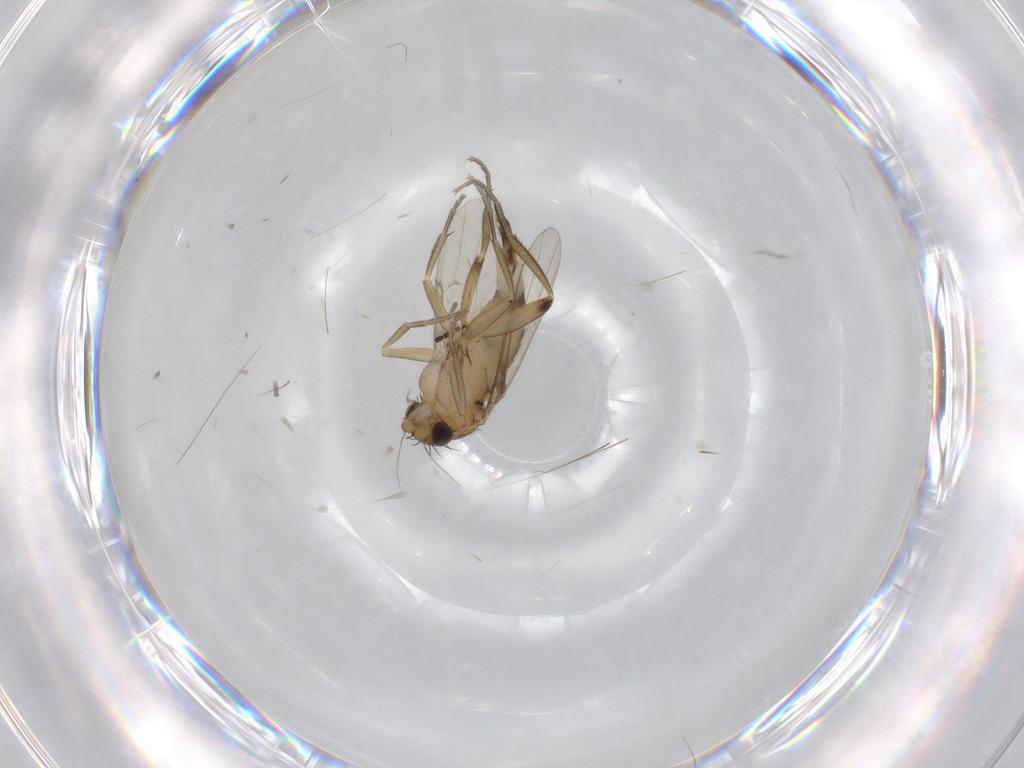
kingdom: Animalia
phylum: Arthropoda
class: Insecta
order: Diptera
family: Phoridae
